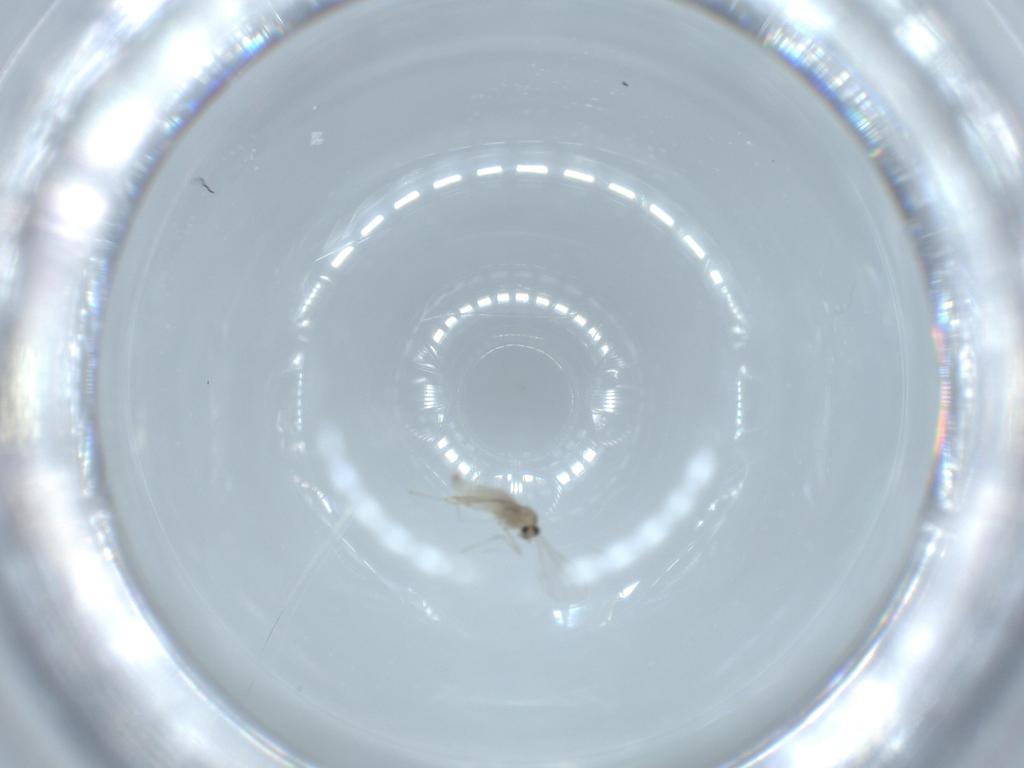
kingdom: Animalia
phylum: Arthropoda
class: Insecta
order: Diptera
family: Cecidomyiidae
